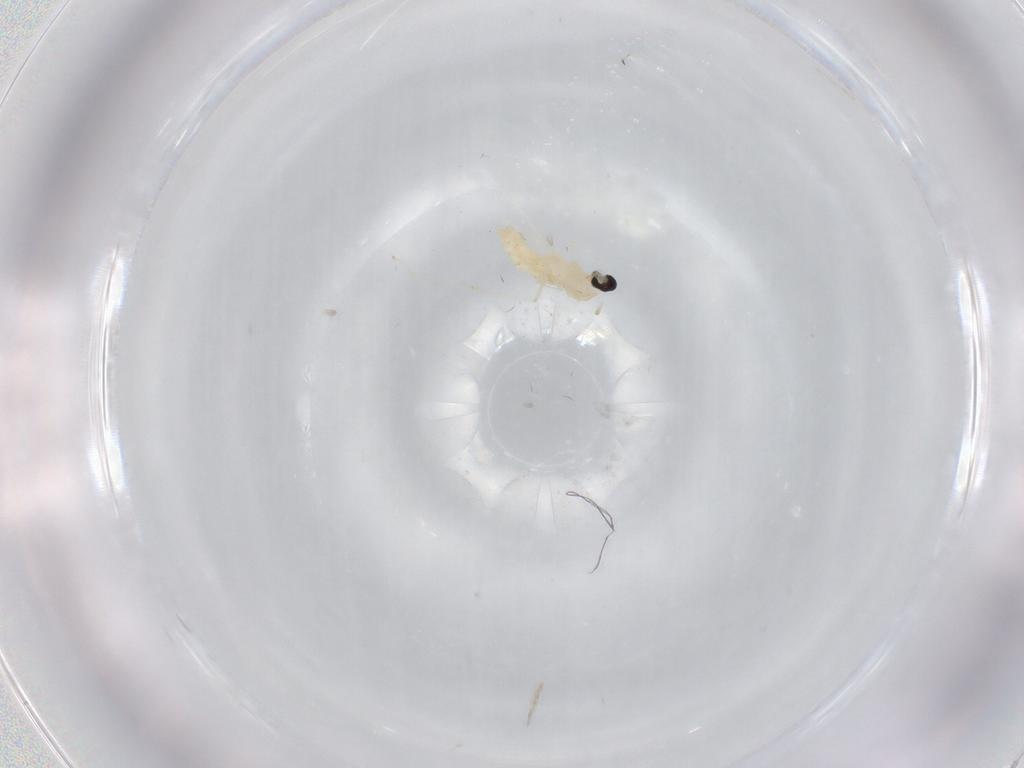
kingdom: Animalia
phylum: Arthropoda
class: Insecta
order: Diptera
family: Cecidomyiidae
